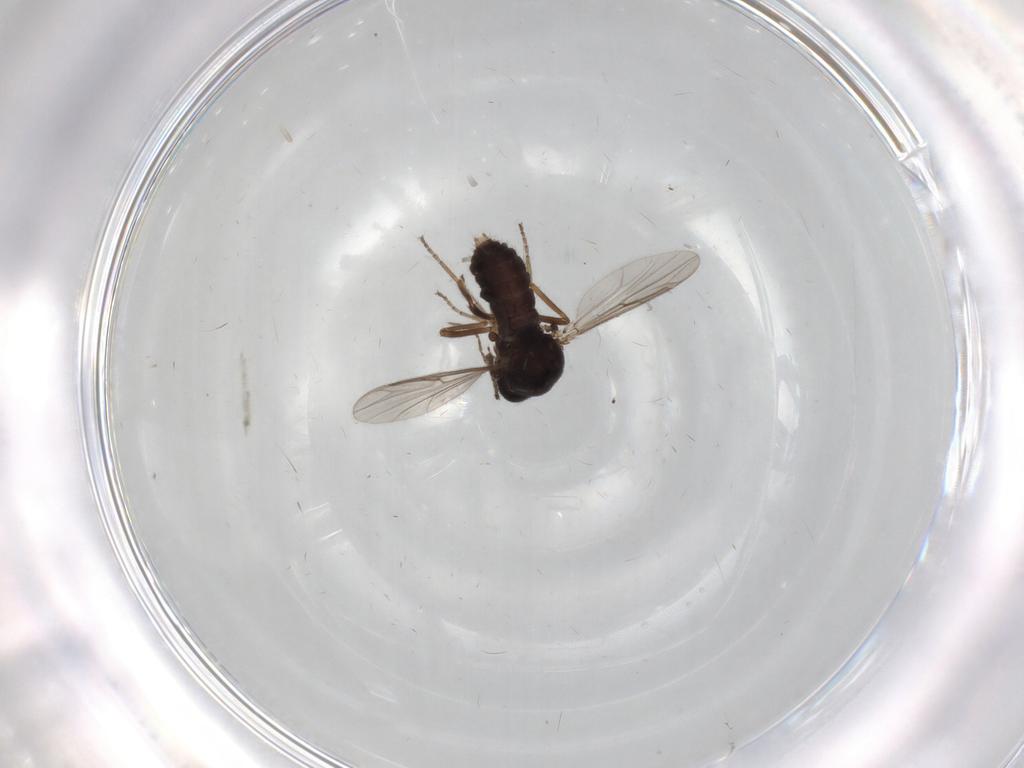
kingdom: Animalia
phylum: Arthropoda
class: Insecta
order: Diptera
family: Ceratopogonidae
